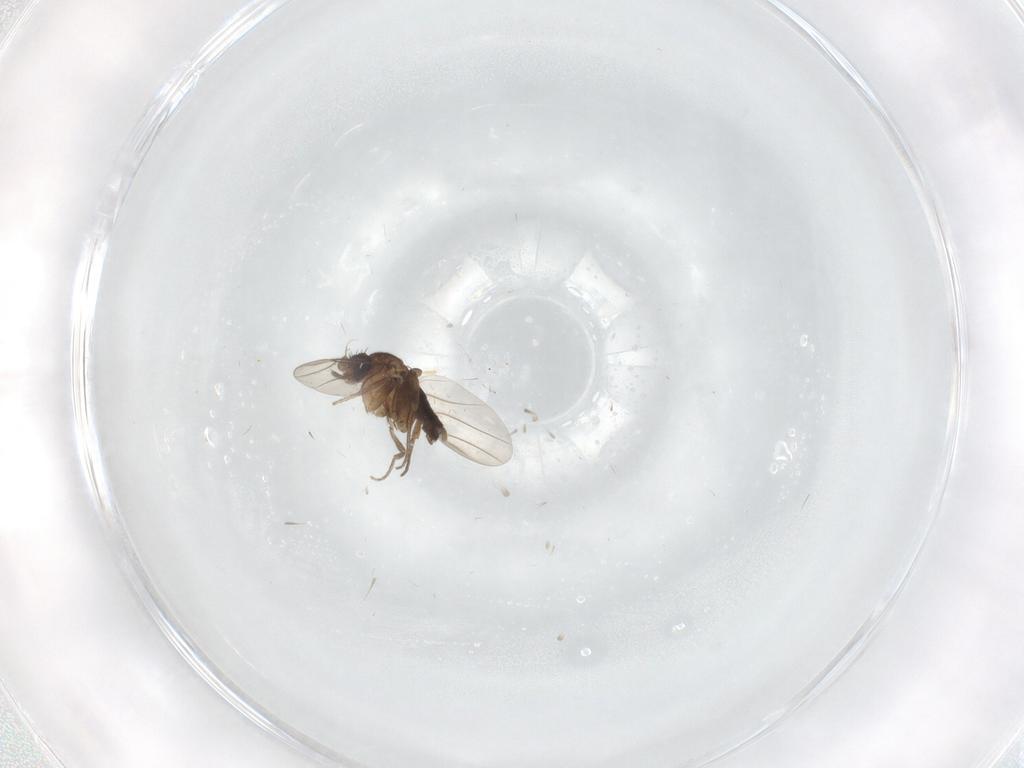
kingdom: Animalia
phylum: Arthropoda
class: Insecta
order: Diptera
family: Phoridae
